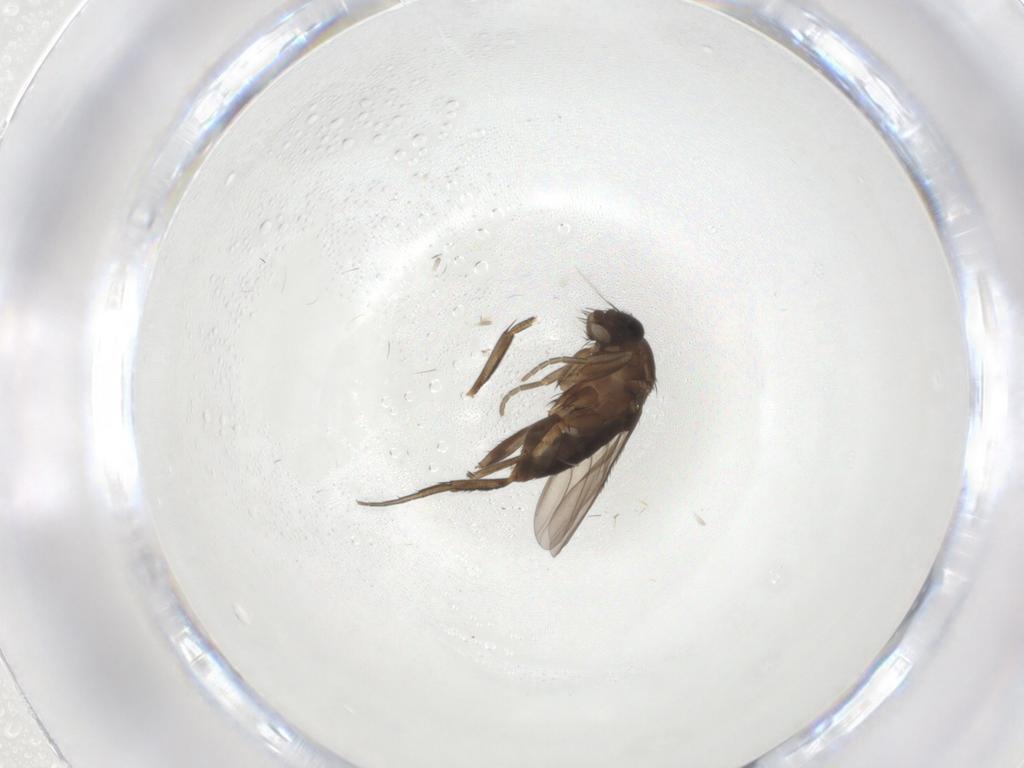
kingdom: Animalia
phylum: Arthropoda
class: Insecta
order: Diptera
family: Phoridae
